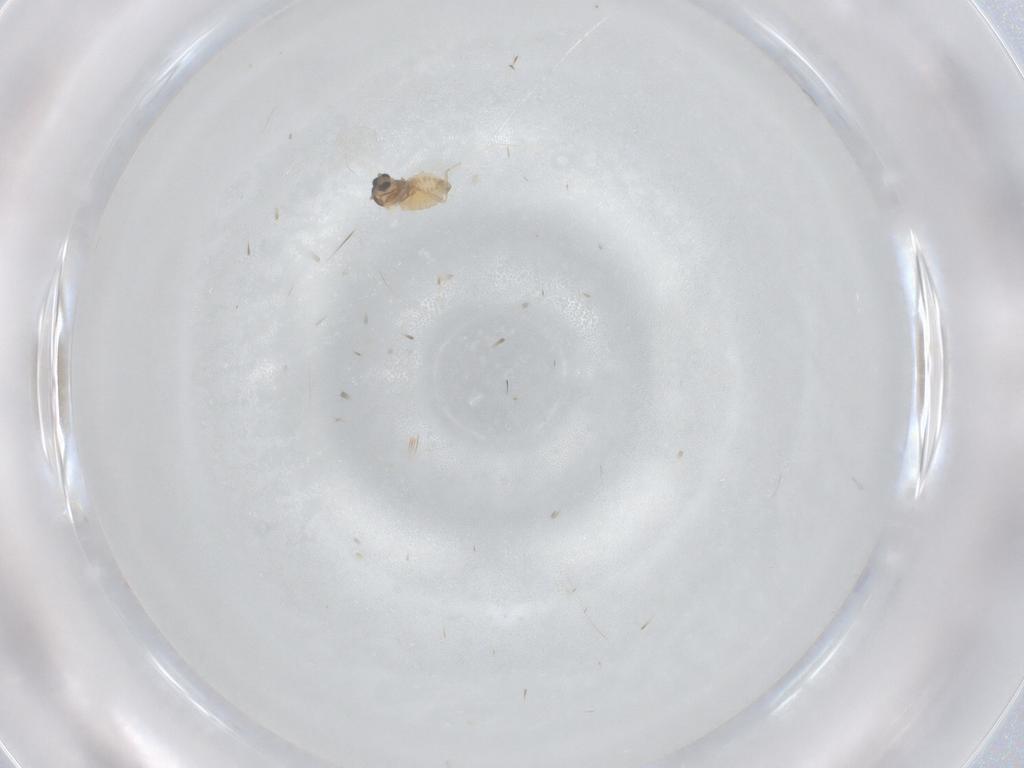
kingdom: Animalia
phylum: Arthropoda
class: Insecta
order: Diptera
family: Cecidomyiidae
